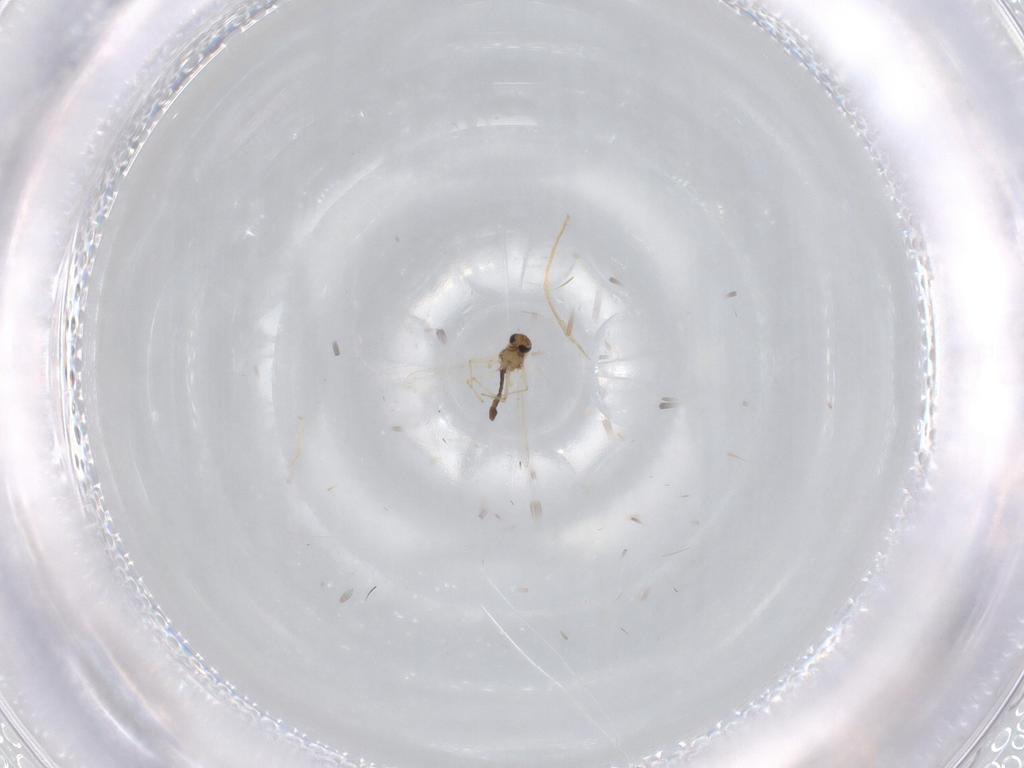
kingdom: Animalia
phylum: Arthropoda
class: Insecta
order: Diptera
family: Chironomidae
